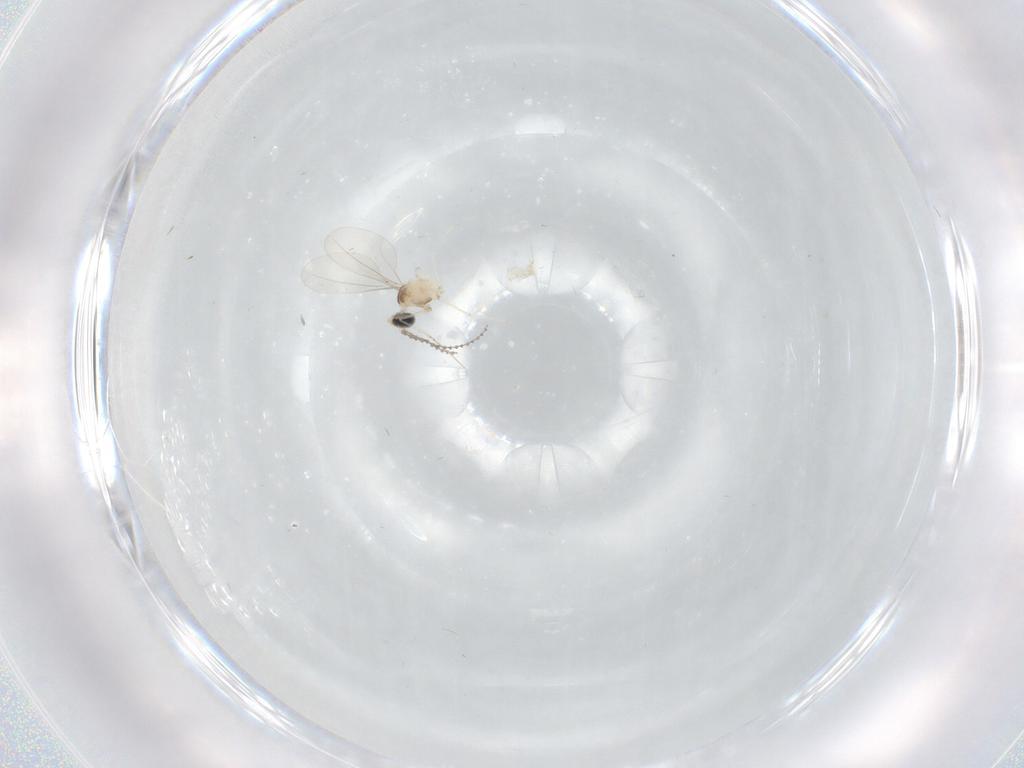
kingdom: Animalia
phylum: Arthropoda
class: Insecta
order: Diptera
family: Cecidomyiidae
